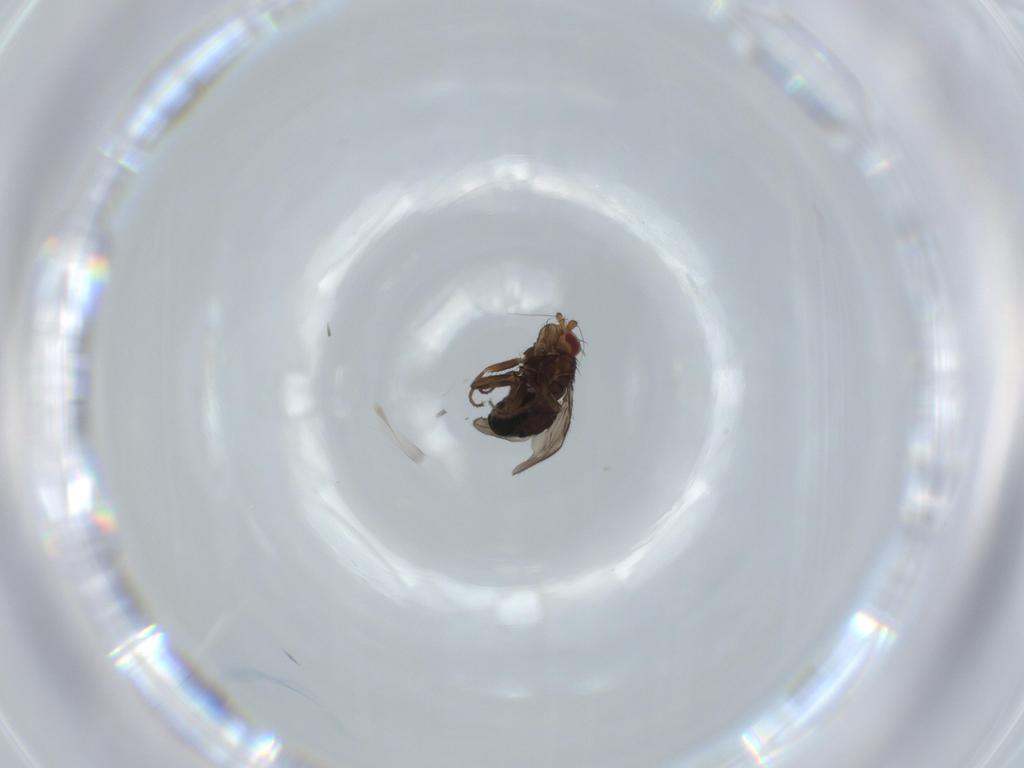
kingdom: Animalia
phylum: Arthropoda
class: Insecta
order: Diptera
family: Sphaeroceridae
